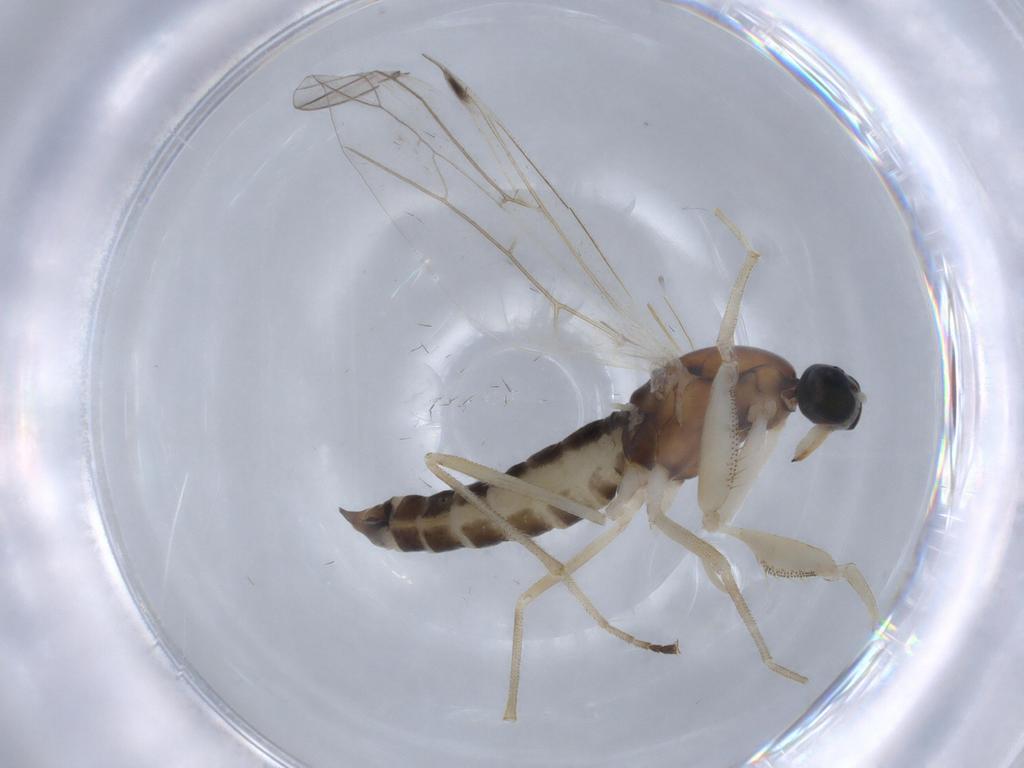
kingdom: Animalia
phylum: Arthropoda
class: Insecta
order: Diptera
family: Empididae
